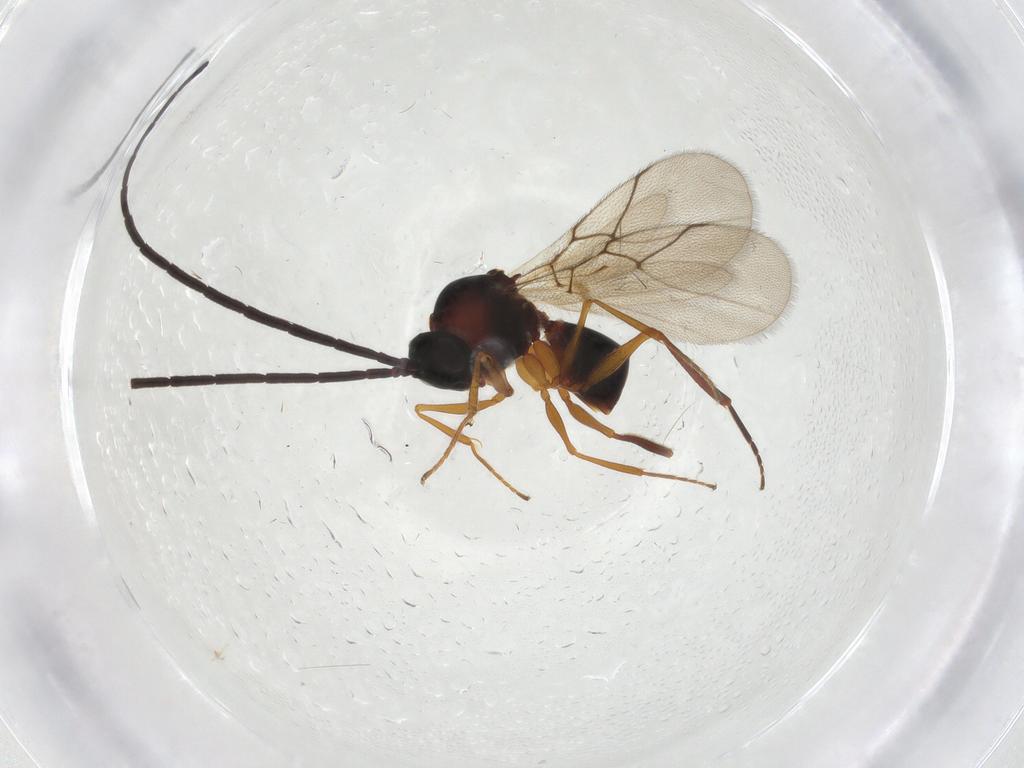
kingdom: Animalia
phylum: Arthropoda
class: Insecta
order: Hymenoptera
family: Figitidae
